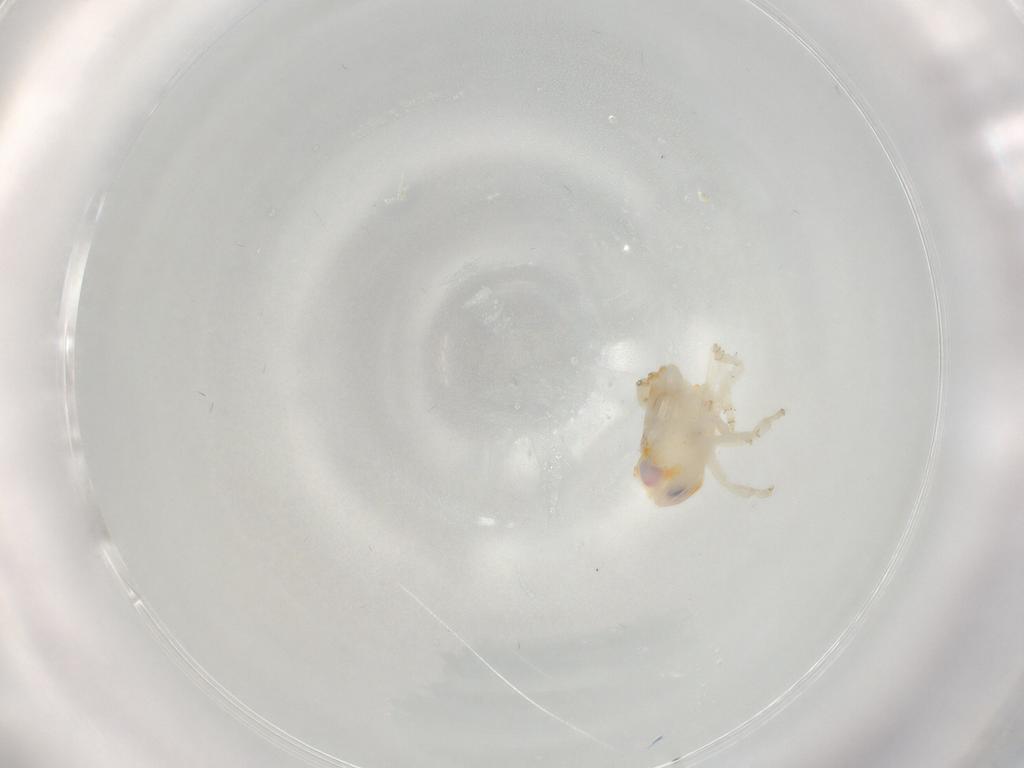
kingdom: Animalia
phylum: Arthropoda
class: Insecta
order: Hemiptera
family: Nogodinidae
